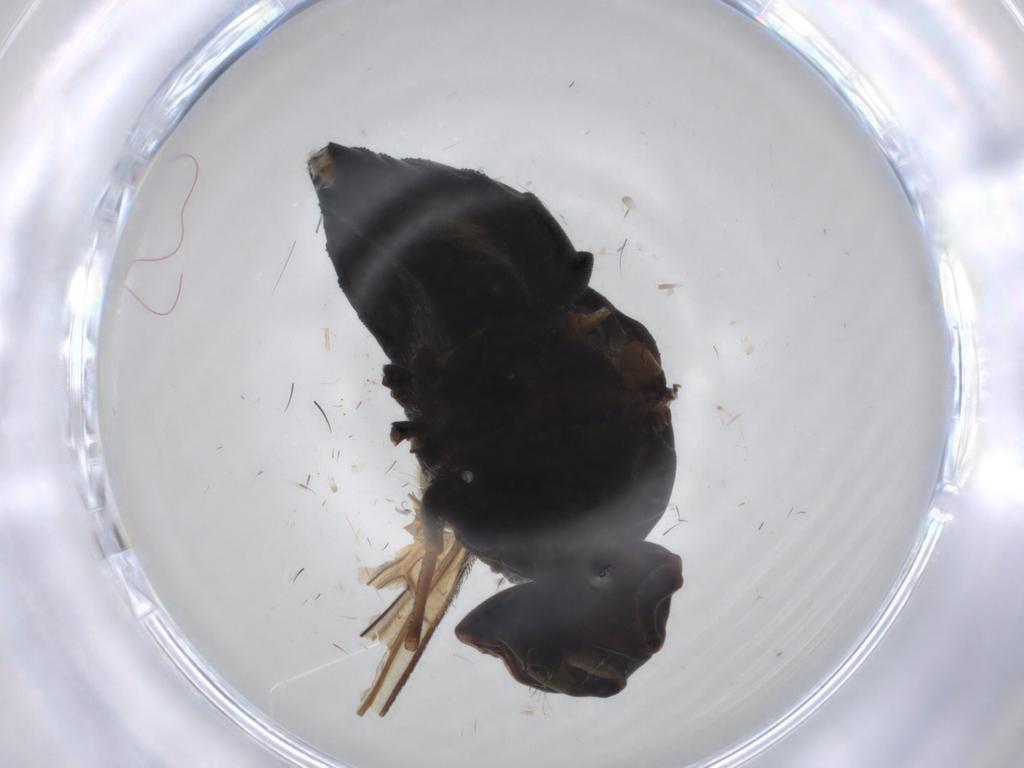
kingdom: Animalia
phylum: Arthropoda
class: Insecta
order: Diptera
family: Bombyliidae
